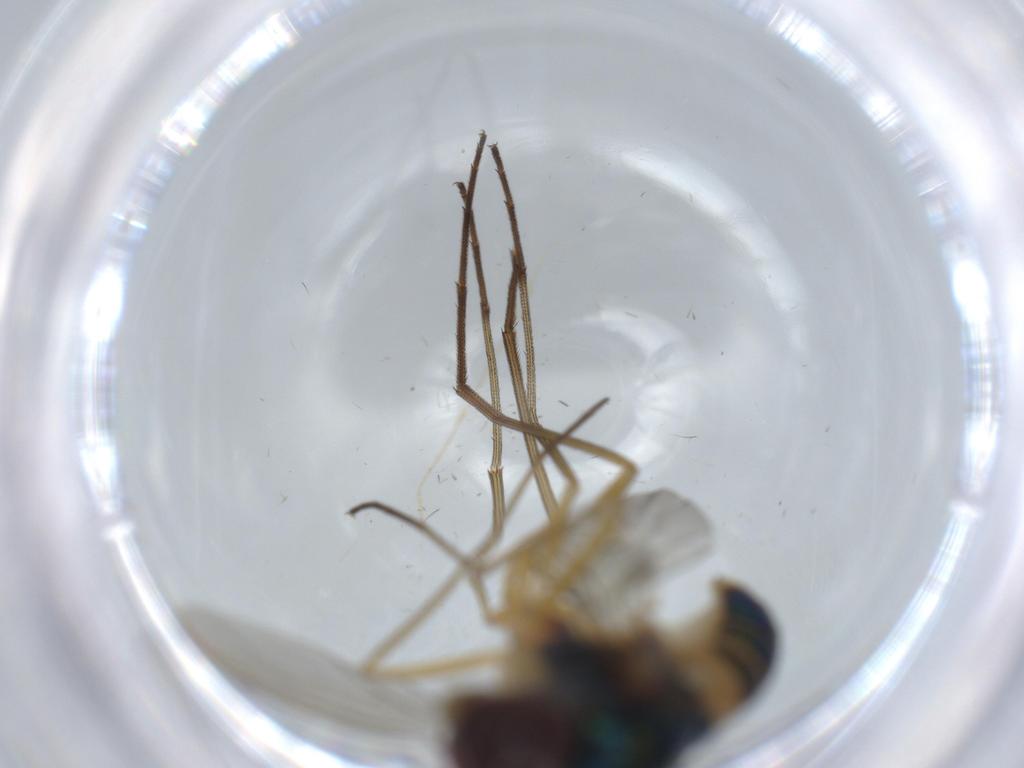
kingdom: Animalia
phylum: Arthropoda
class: Insecta
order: Diptera
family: Dolichopodidae
